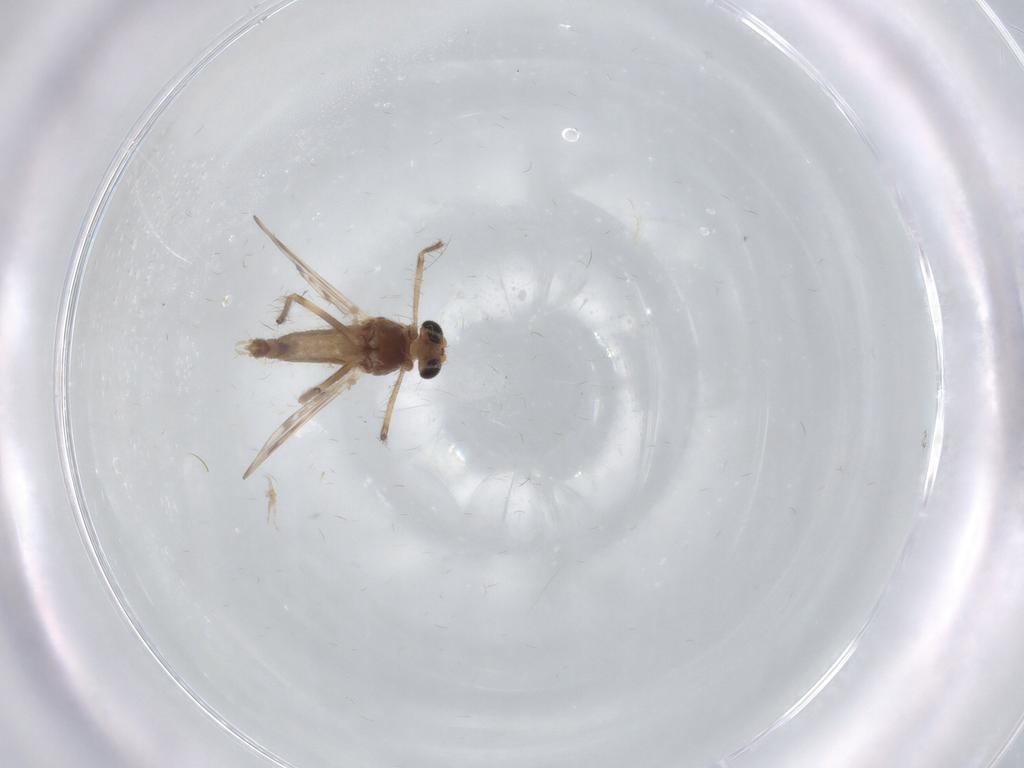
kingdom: Animalia
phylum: Arthropoda
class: Insecta
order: Diptera
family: Chironomidae
